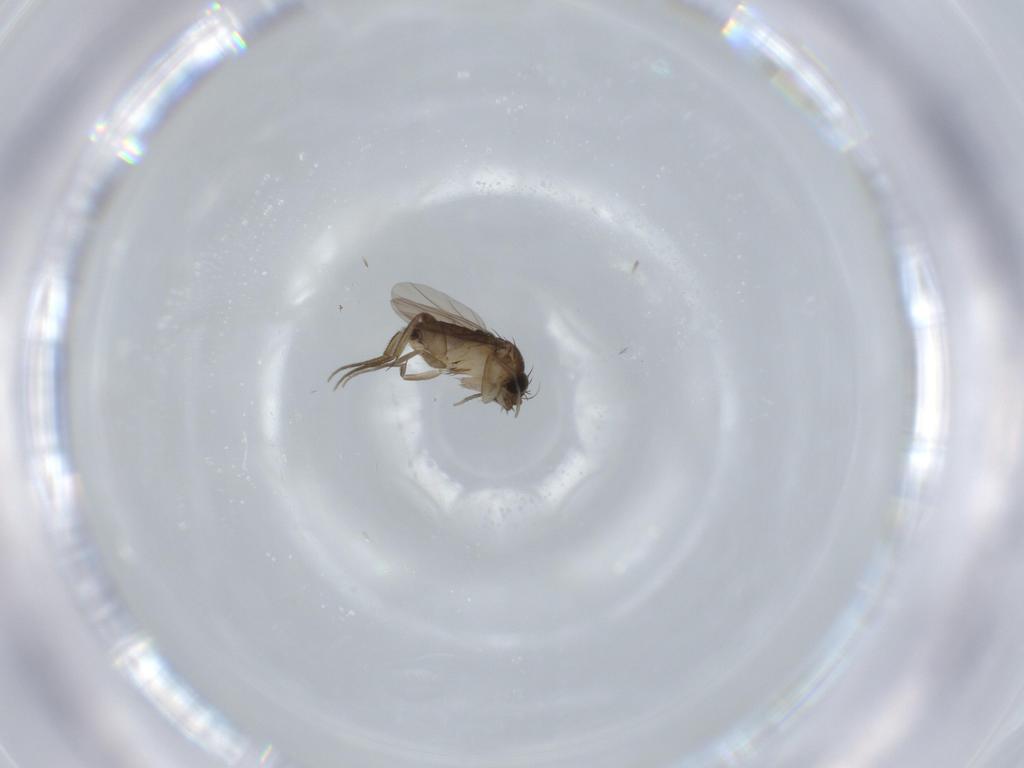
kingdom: Animalia
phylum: Arthropoda
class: Insecta
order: Diptera
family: Phoridae
